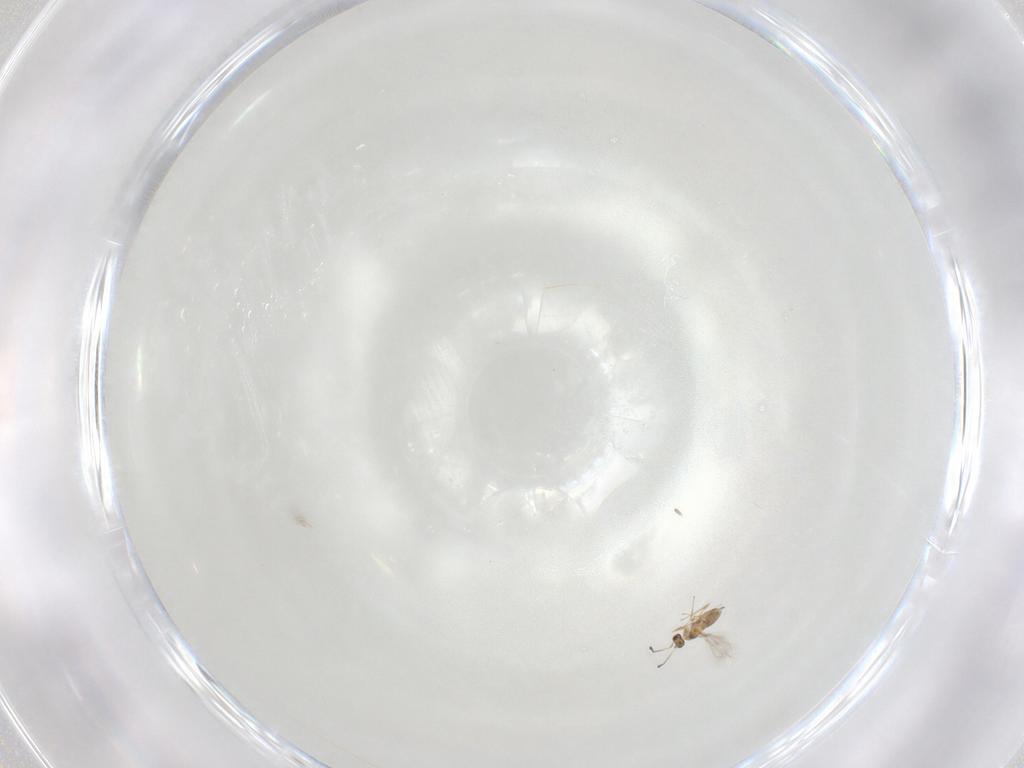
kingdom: Animalia
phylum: Arthropoda
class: Insecta
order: Hymenoptera
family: Mymaridae
